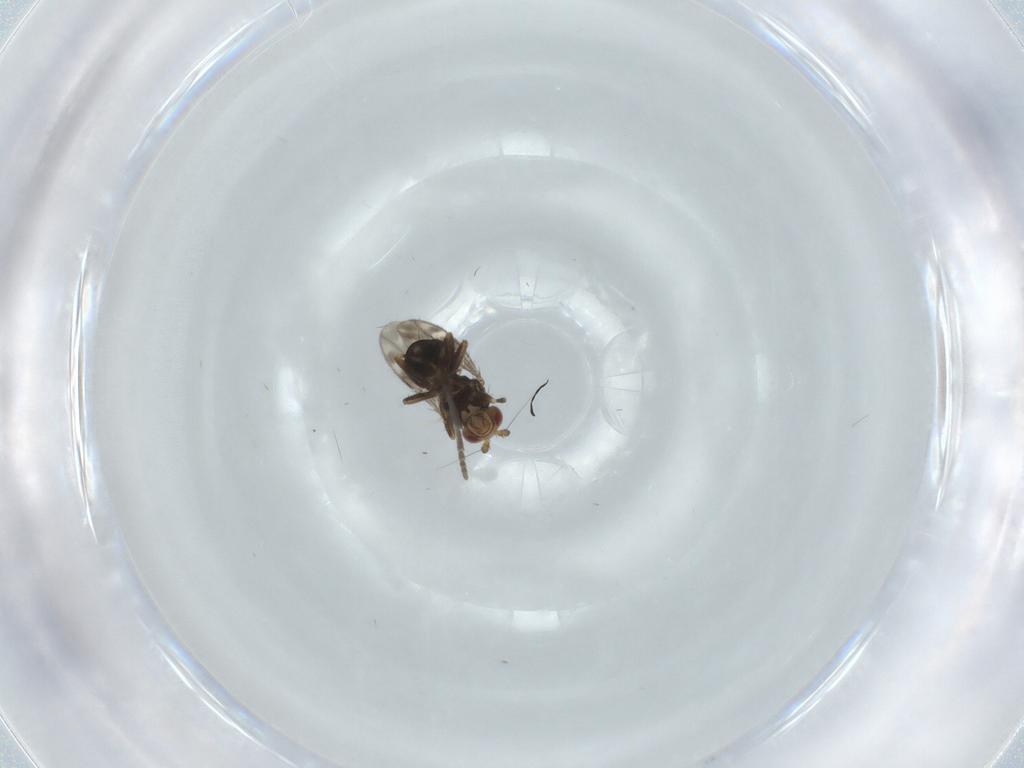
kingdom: Animalia
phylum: Arthropoda
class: Insecta
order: Diptera
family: Sphaeroceridae
